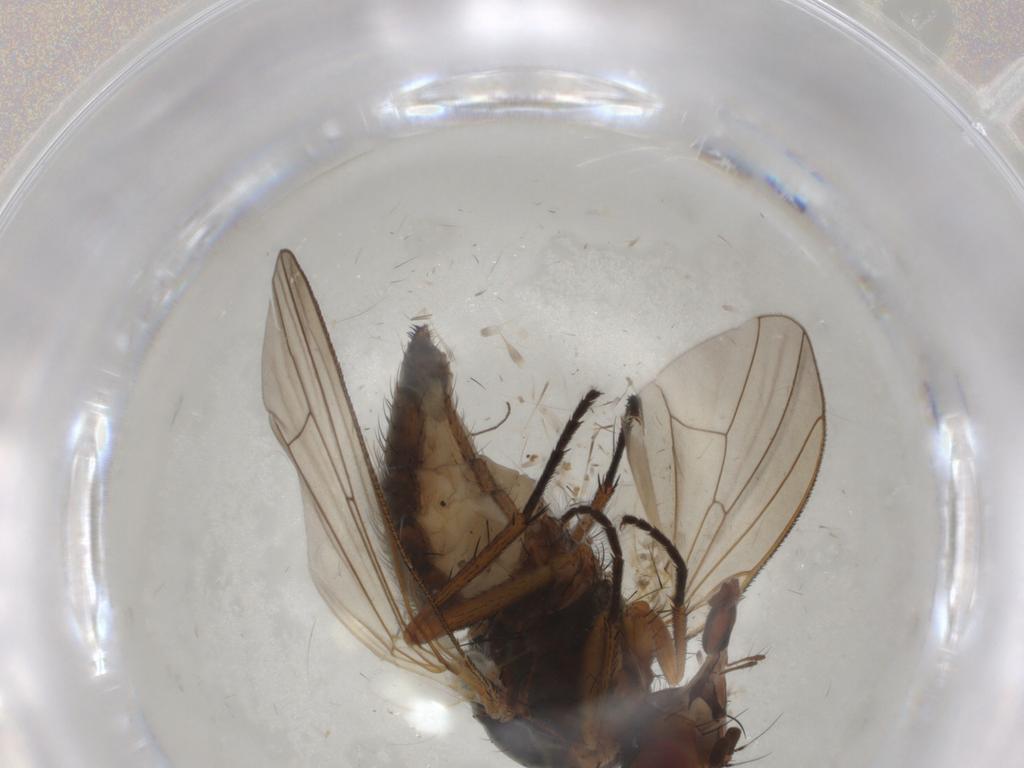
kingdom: Animalia
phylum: Arthropoda
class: Insecta
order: Diptera
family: Anthomyiidae
